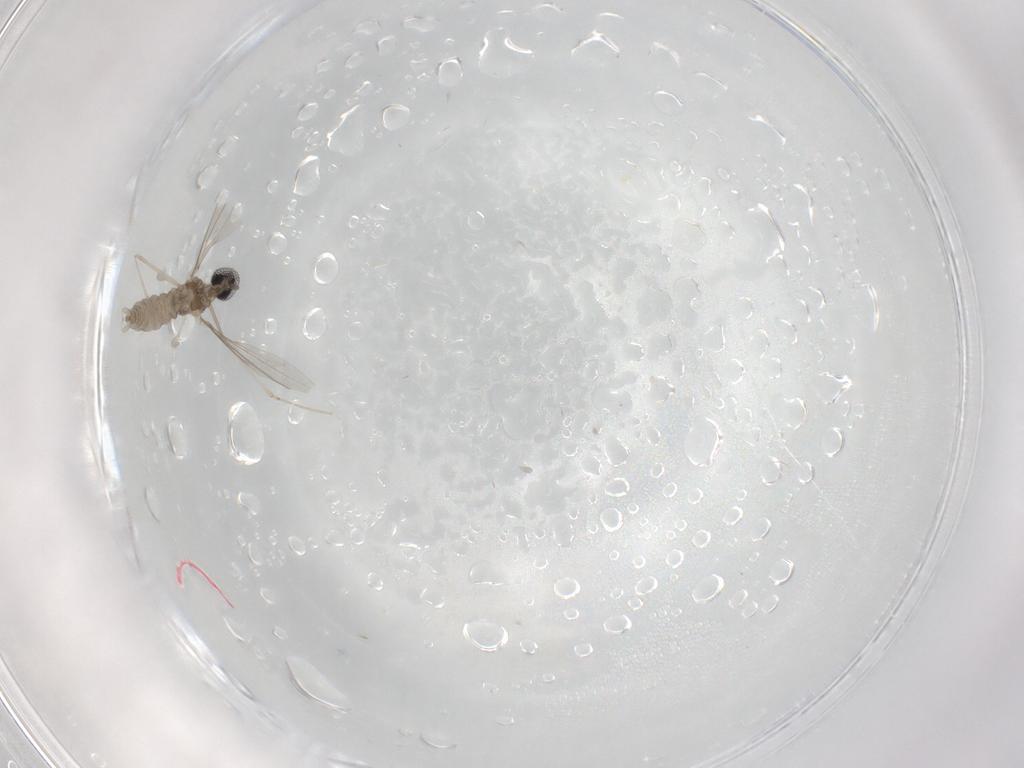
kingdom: Animalia
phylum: Arthropoda
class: Insecta
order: Diptera
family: Cecidomyiidae
